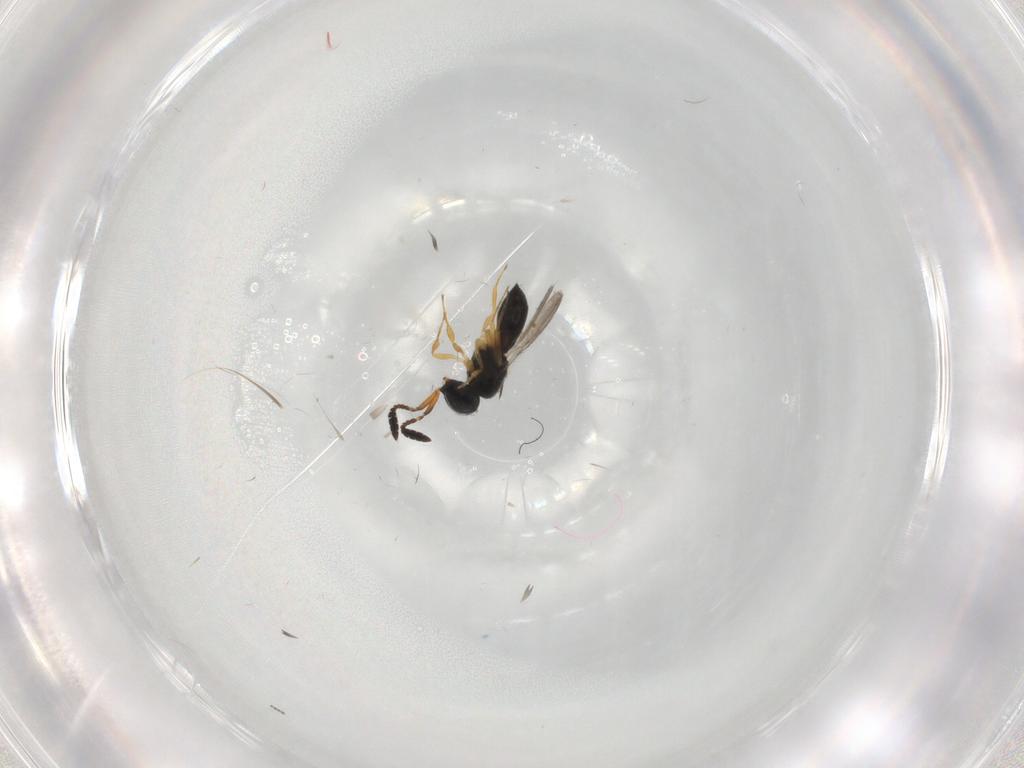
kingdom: Animalia
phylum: Arthropoda
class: Insecta
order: Hymenoptera
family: Scelionidae
